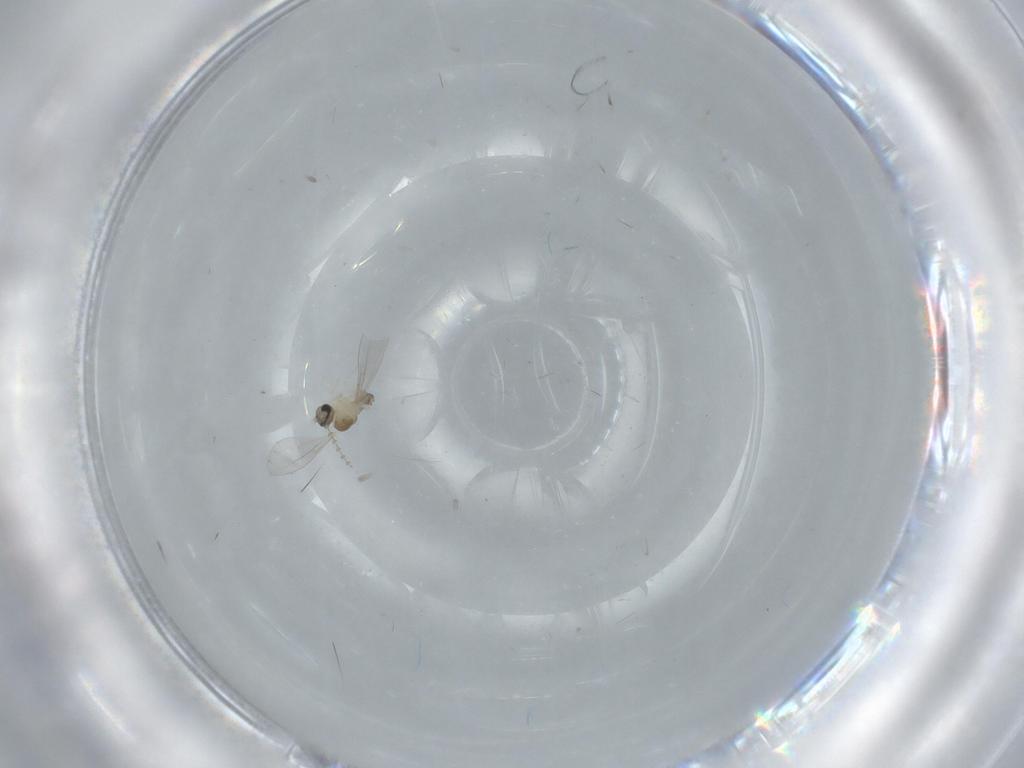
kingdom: Animalia
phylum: Arthropoda
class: Insecta
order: Diptera
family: Cecidomyiidae
